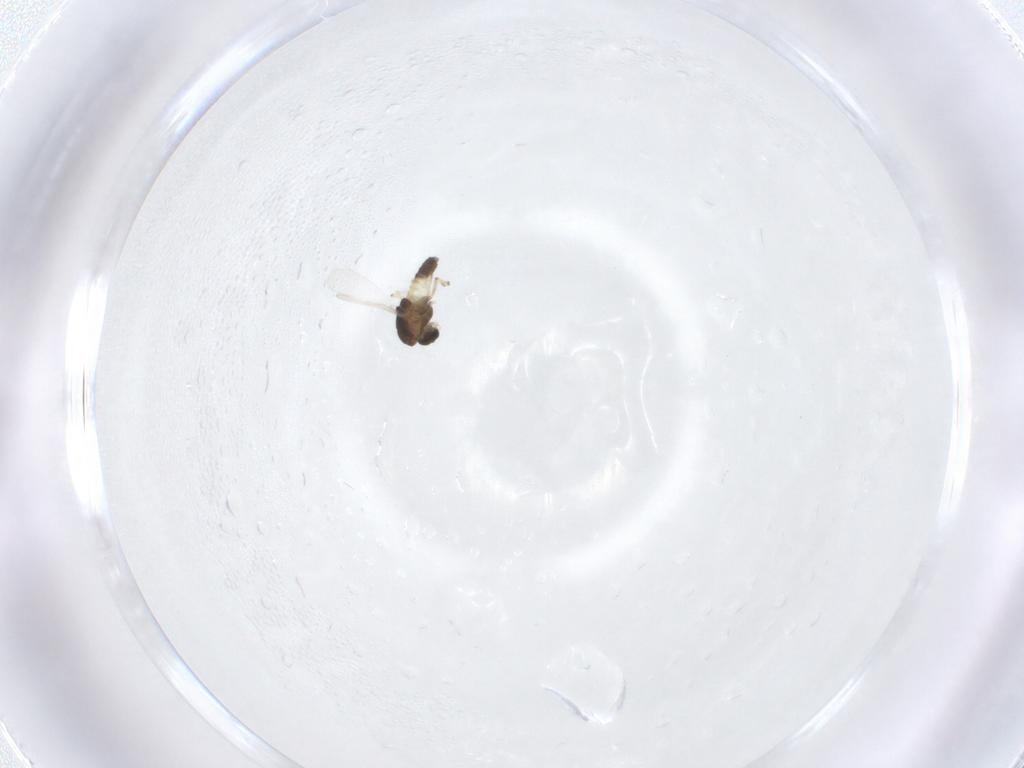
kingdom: Animalia
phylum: Arthropoda
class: Insecta
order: Diptera
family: Chironomidae
